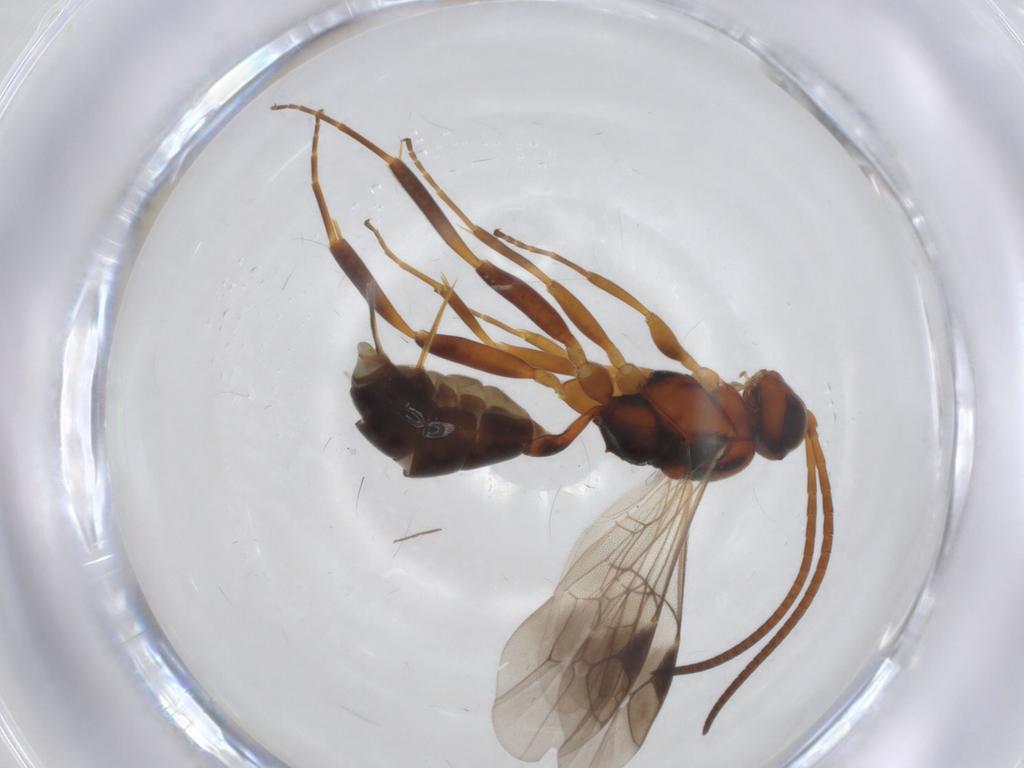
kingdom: Animalia
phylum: Arthropoda
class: Insecta
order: Hymenoptera
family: Ichneumonidae
